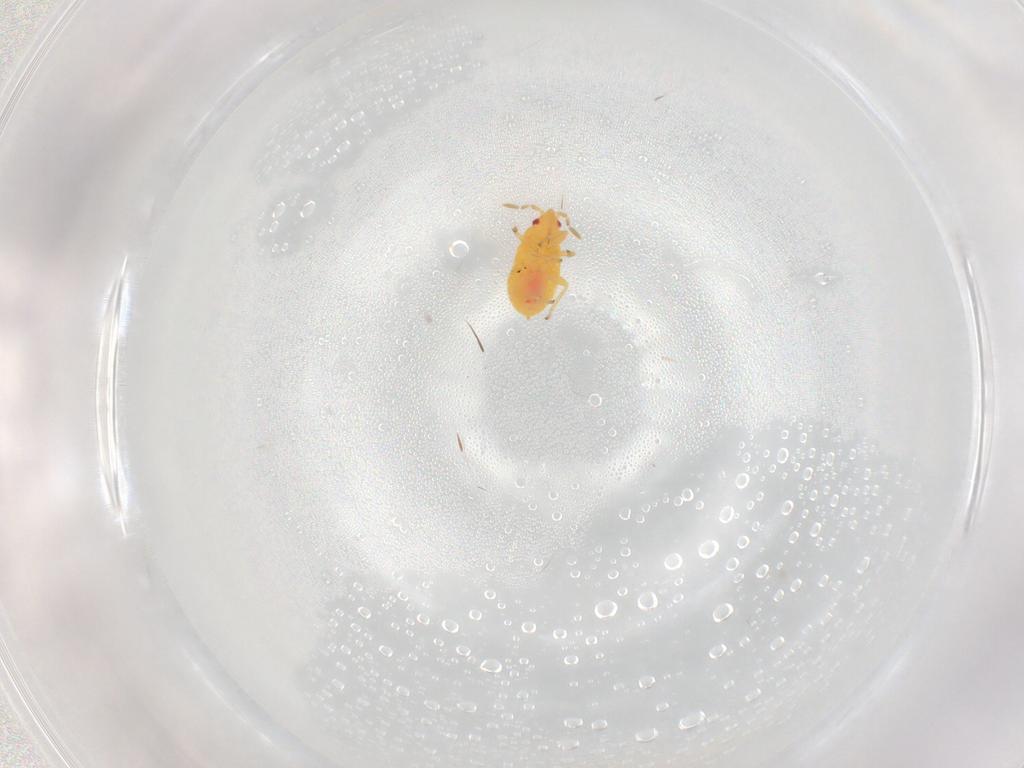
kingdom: Animalia
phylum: Arthropoda
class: Insecta
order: Hemiptera
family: Anthocoridae
